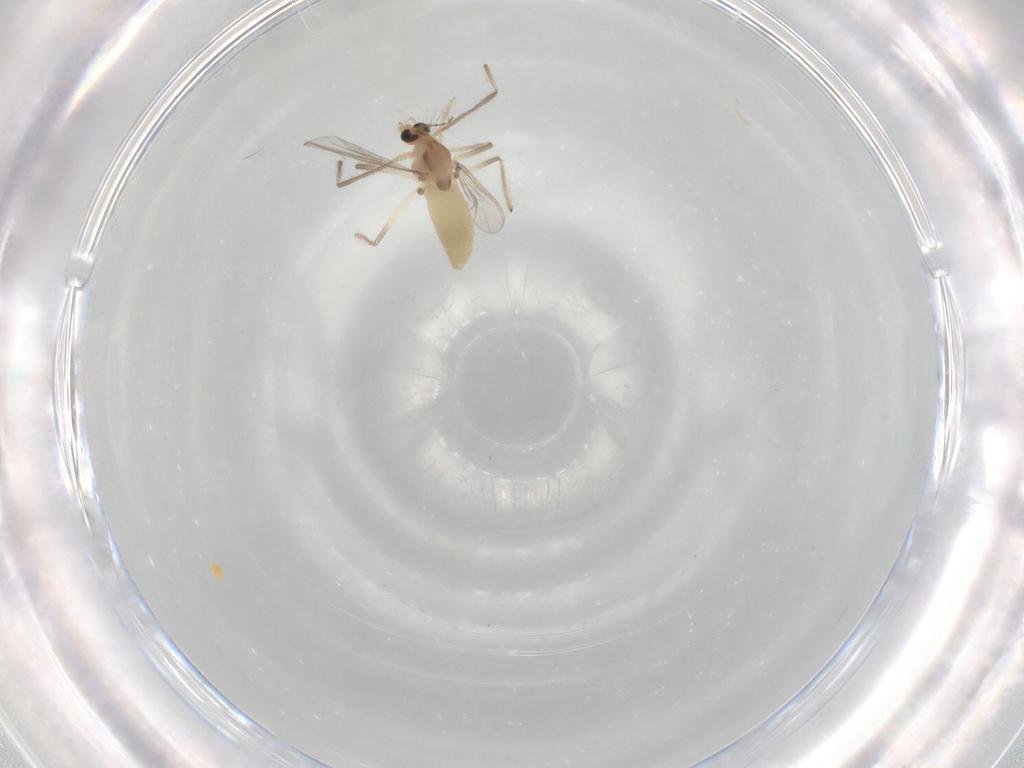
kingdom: Animalia
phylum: Arthropoda
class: Insecta
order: Diptera
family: Chironomidae
